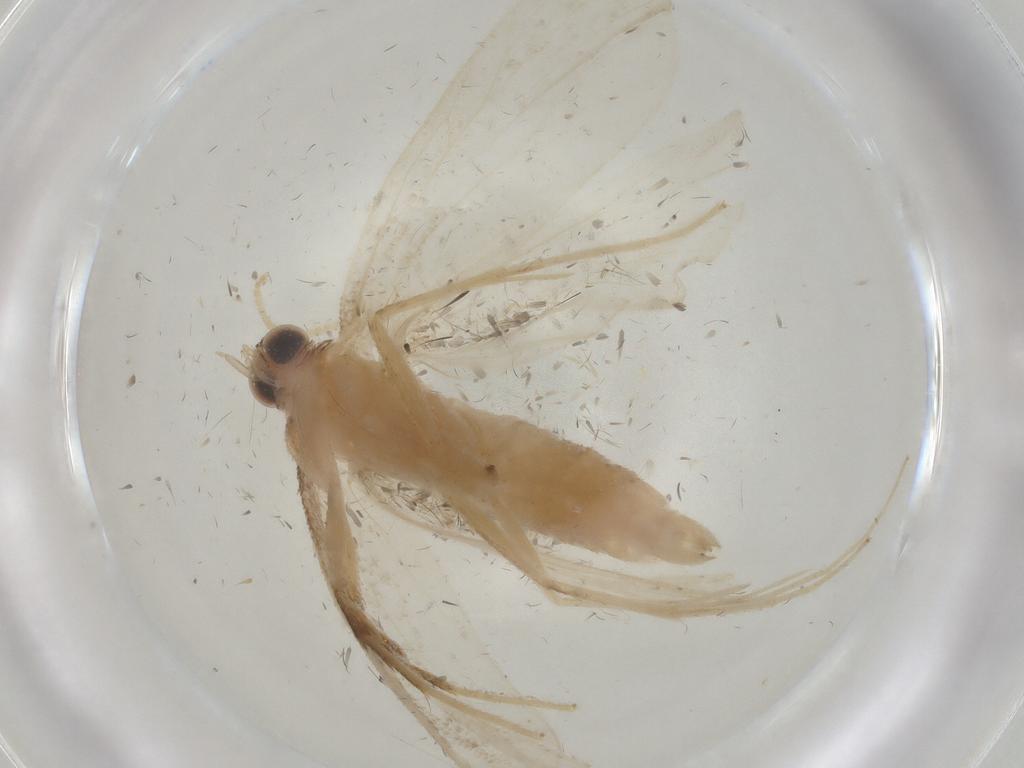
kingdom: Animalia
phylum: Arthropoda
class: Insecta
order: Lepidoptera
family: Crambidae
